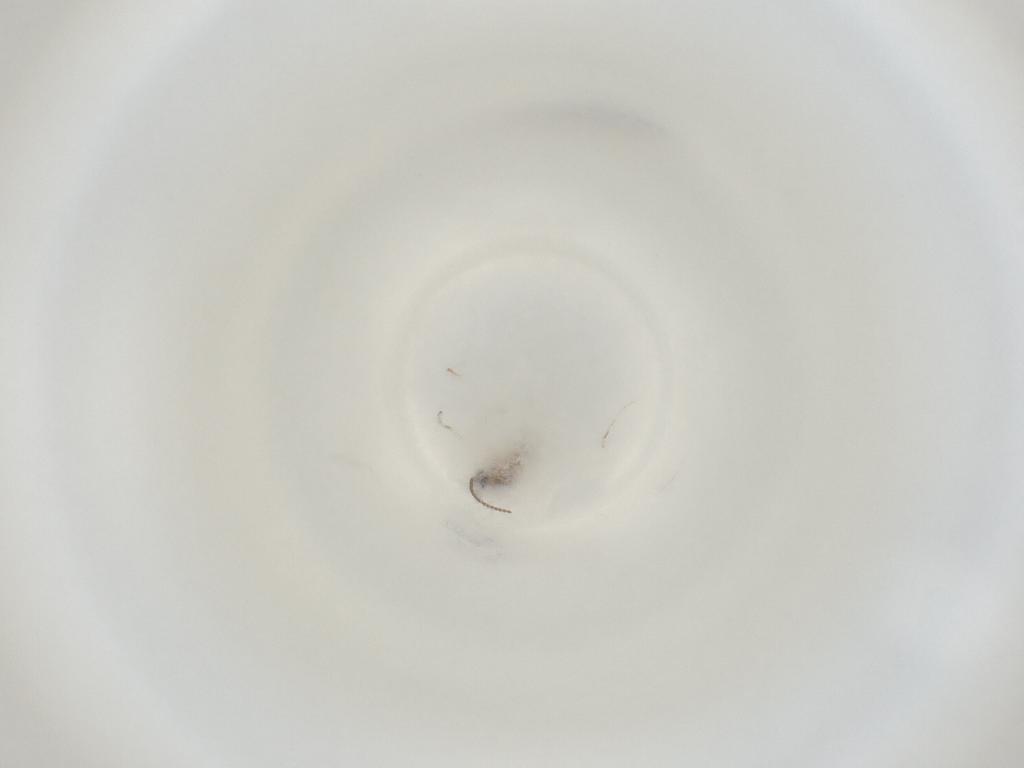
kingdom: Animalia
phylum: Arthropoda
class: Insecta
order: Diptera
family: Cecidomyiidae
